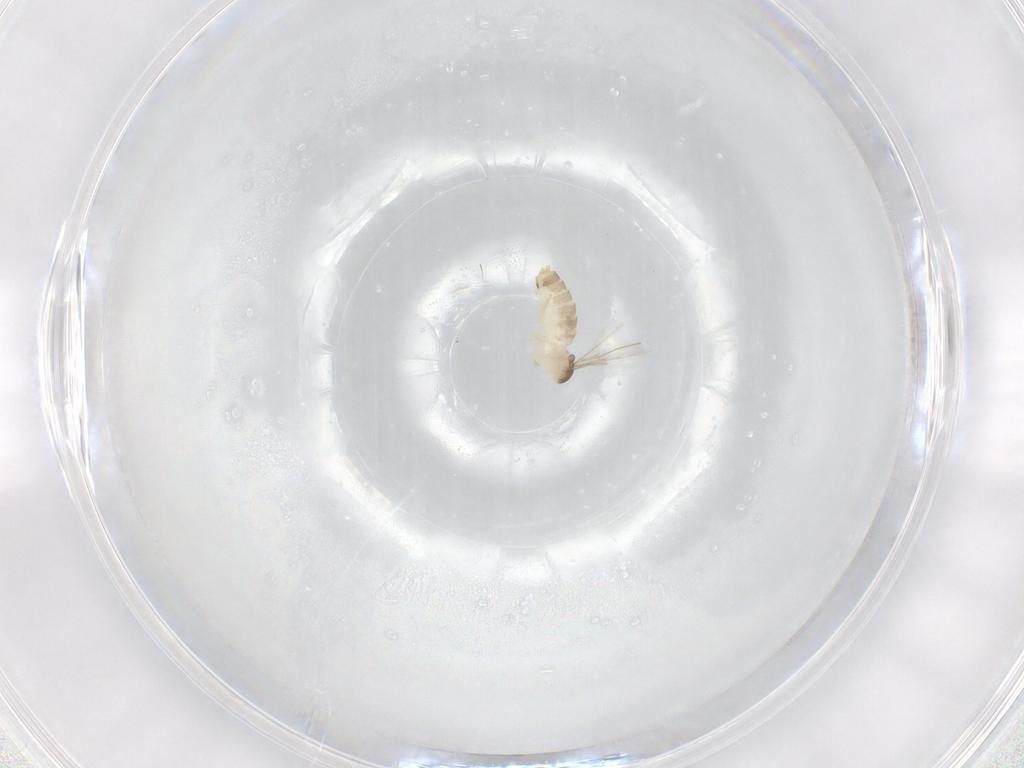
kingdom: Animalia
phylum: Arthropoda
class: Insecta
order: Diptera
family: Cecidomyiidae
